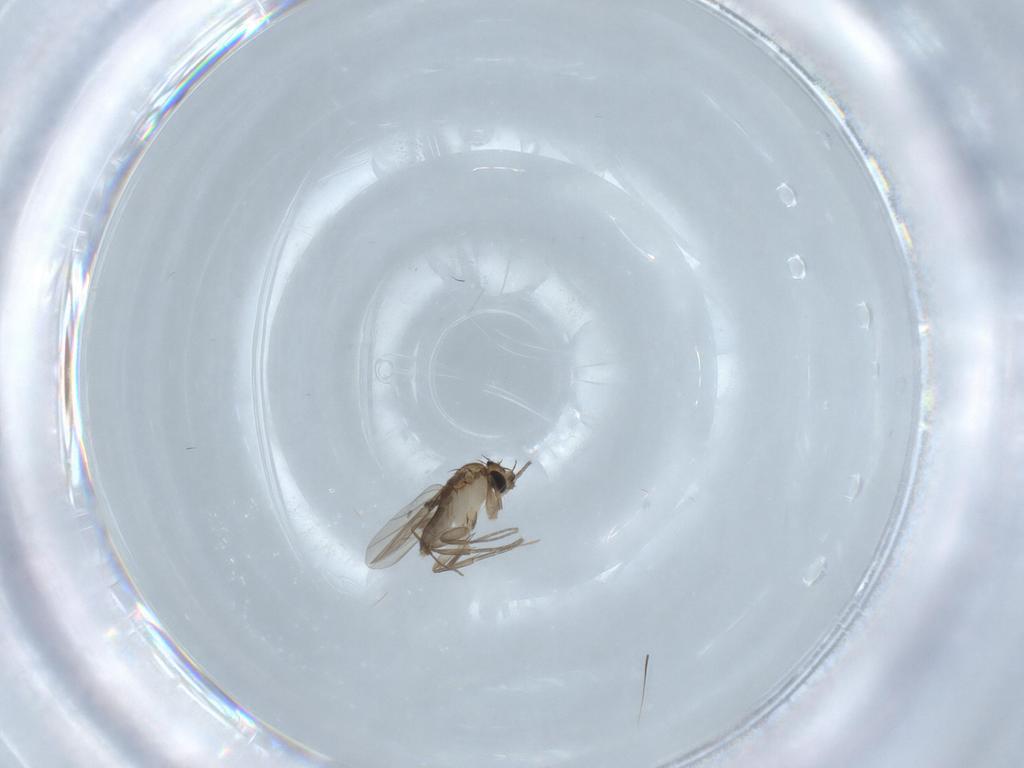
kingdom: Animalia
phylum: Arthropoda
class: Insecta
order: Diptera
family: Phoridae
